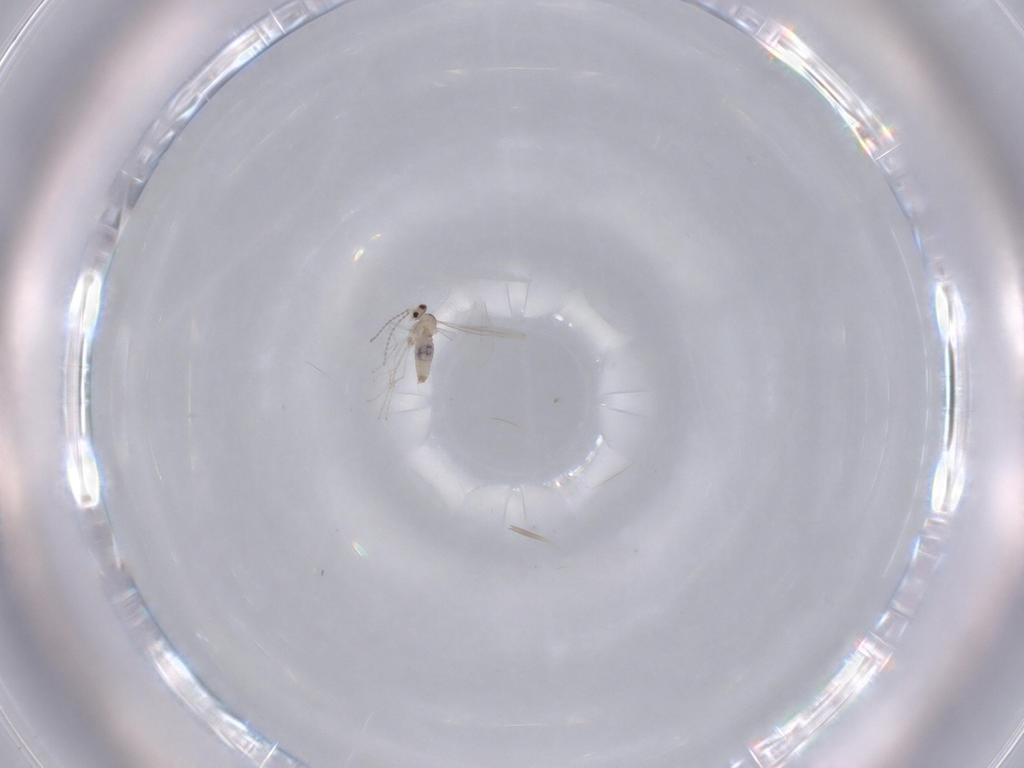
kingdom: Animalia
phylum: Arthropoda
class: Insecta
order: Diptera
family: Cecidomyiidae
